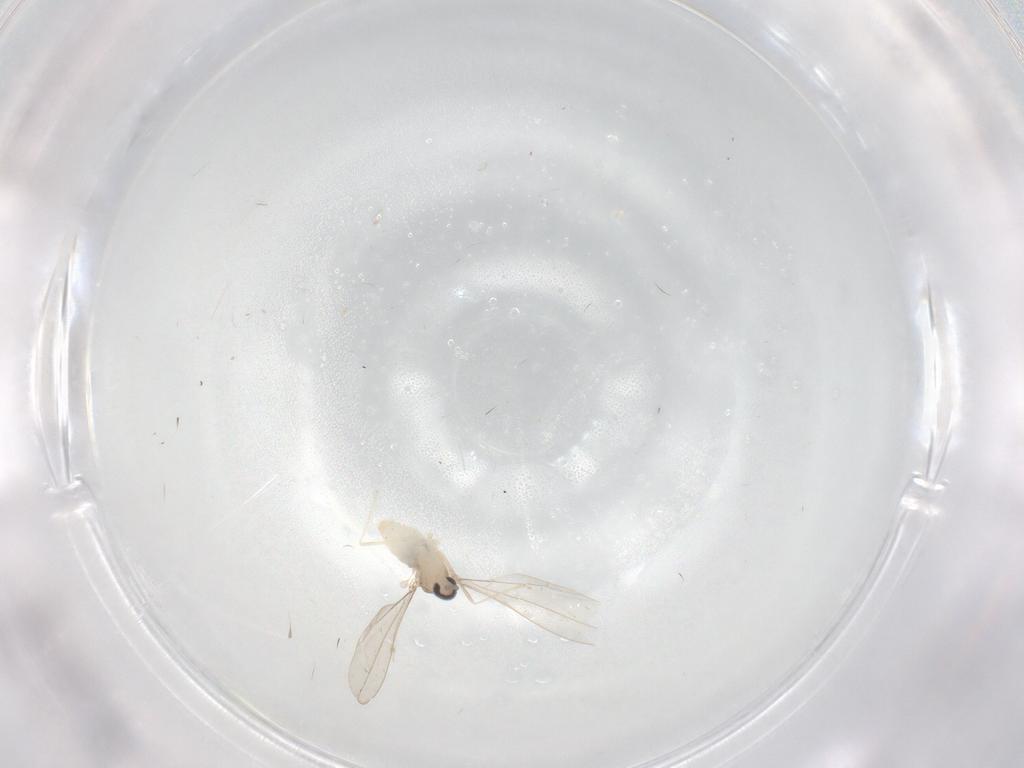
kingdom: Animalia
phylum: Arthropoda
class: Insecta
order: Diptera
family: Cecidomyiidae
